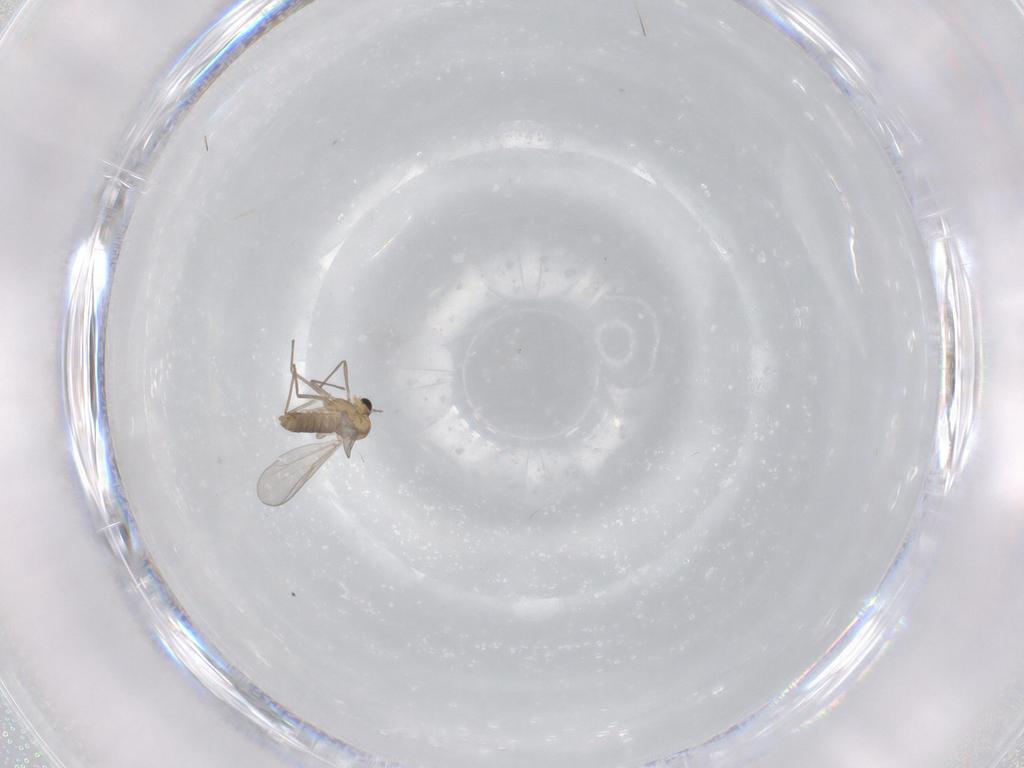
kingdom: Animalia
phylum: Arthropoda
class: Insecta
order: Diptera
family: Chironomidae
